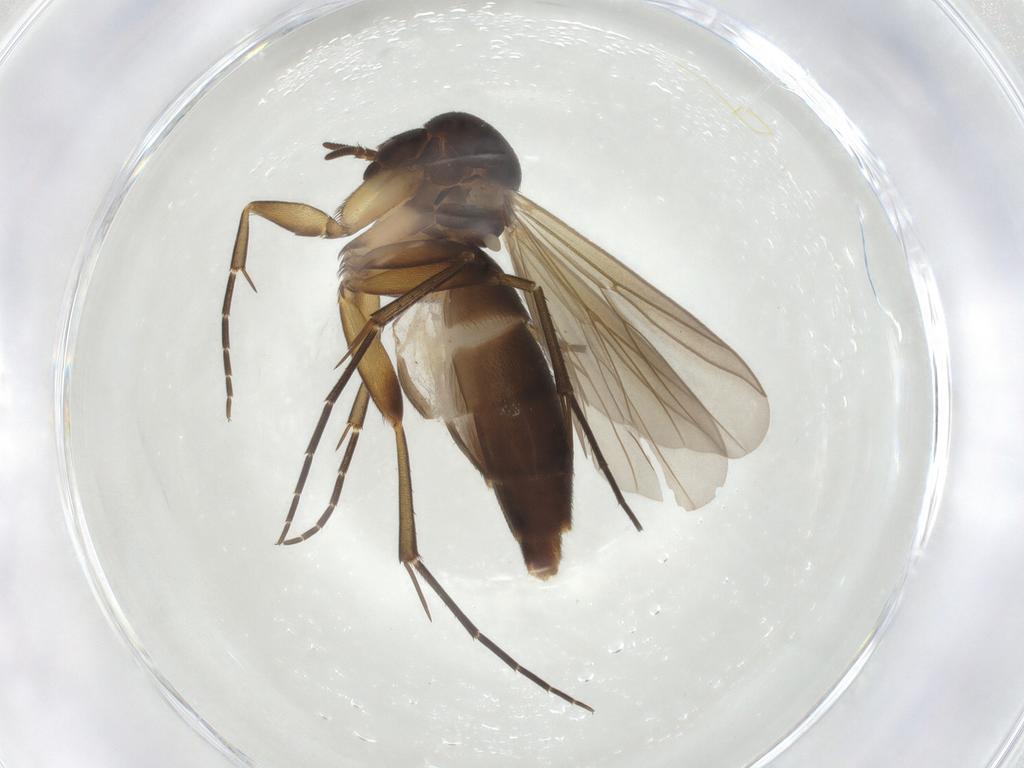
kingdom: Animalia
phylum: Arthropoda
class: Insecta
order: Diptera
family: Mycetophilidae
